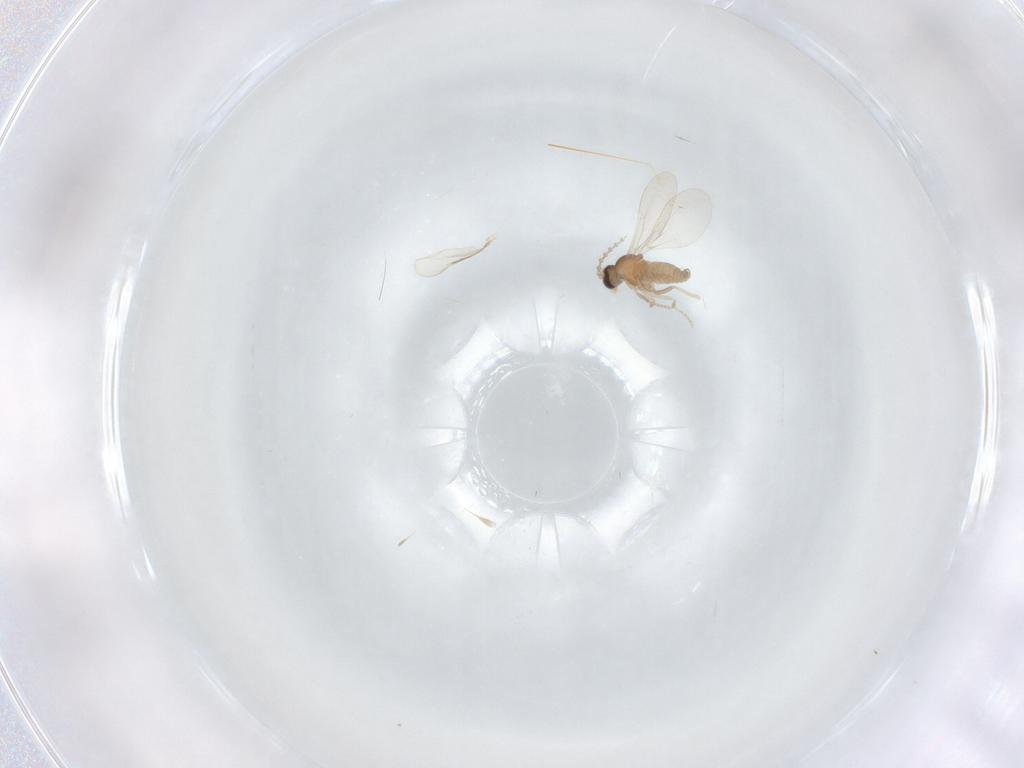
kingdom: Animalia
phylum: Arthropoda
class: Insecta
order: Diptera
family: Cecidomyiidae
